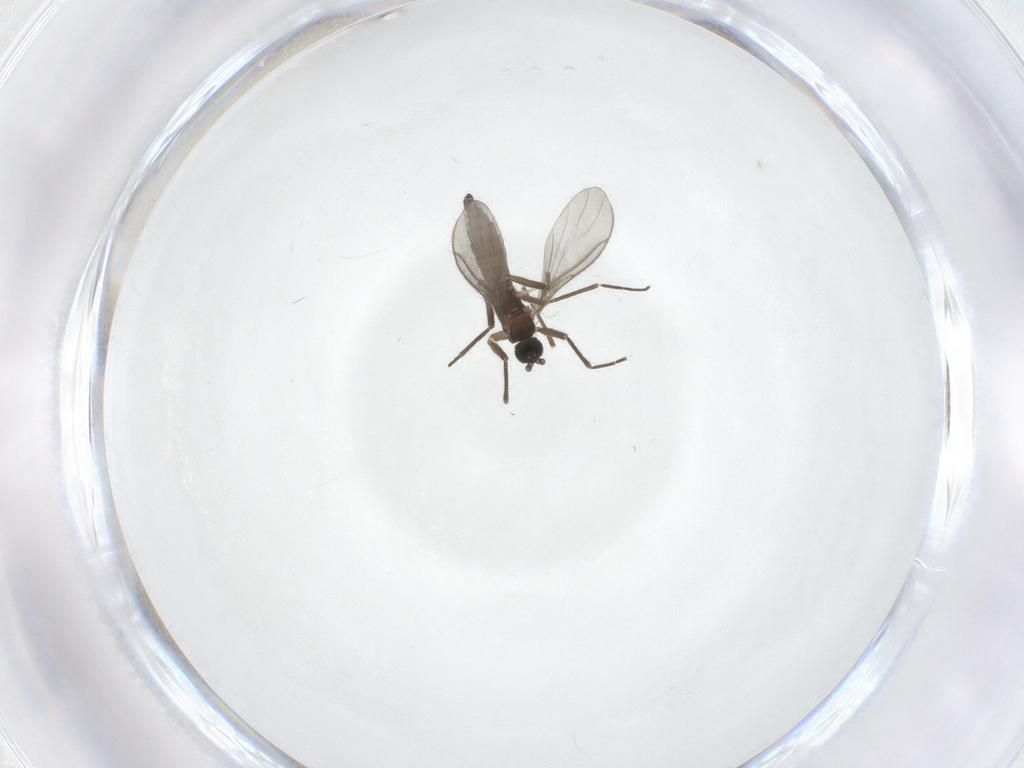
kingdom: Animalia
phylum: Arthropoda
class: Insecta
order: Diptera
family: Sciaridae
